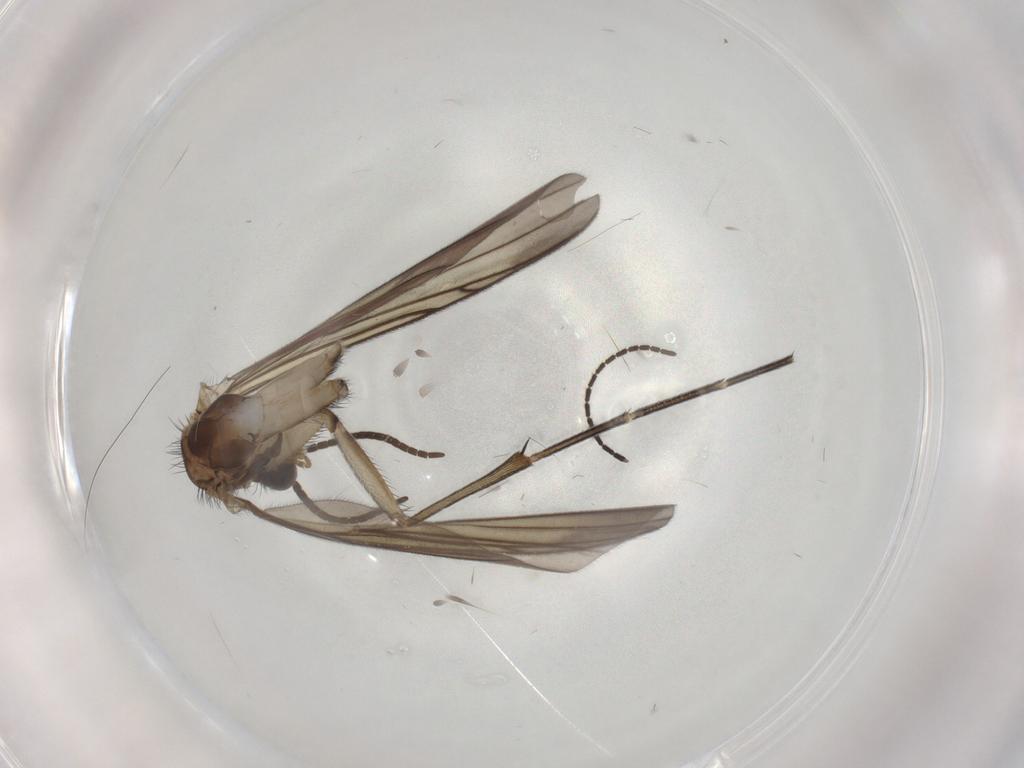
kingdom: Animalia
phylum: Arthropoda
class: Insecta
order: Diptera
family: Keroplatidae
